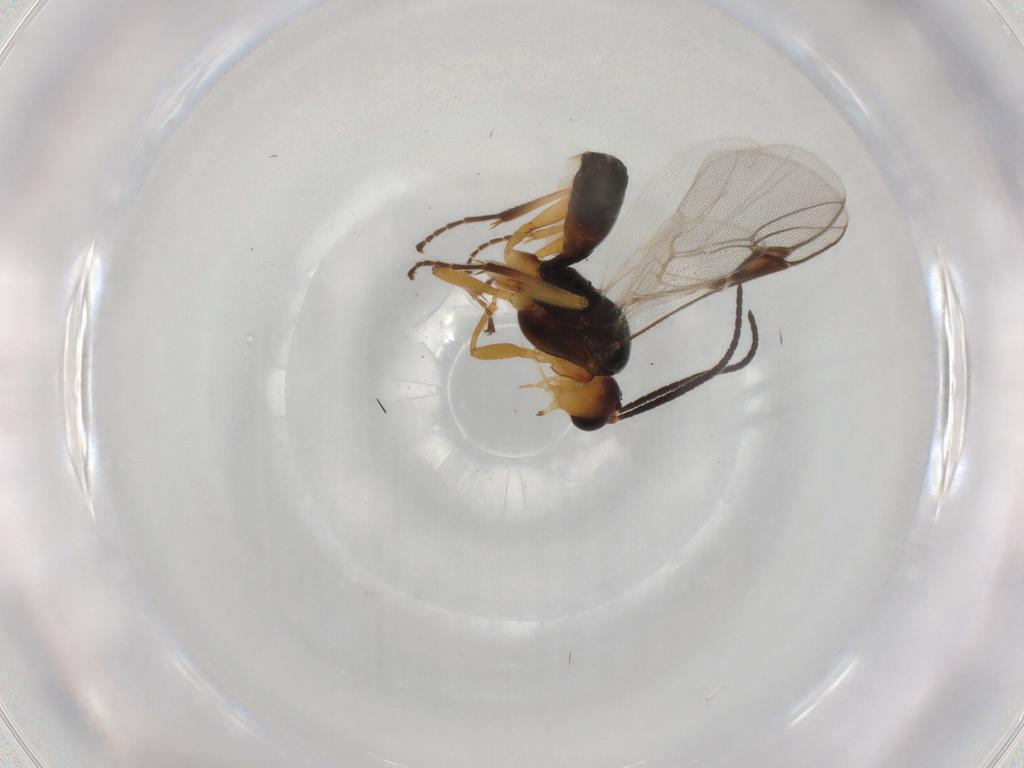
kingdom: Animalia
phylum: Arthropoda
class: Insecta
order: Hymenoptera
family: Braconidae
